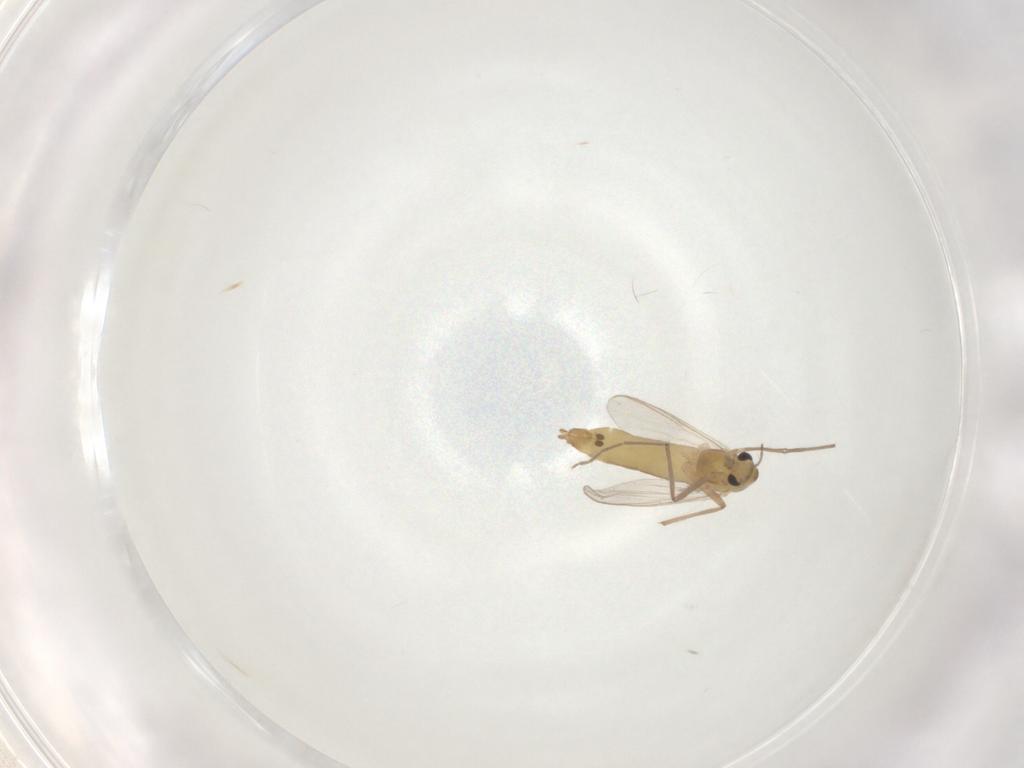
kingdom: Animalia
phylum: Arthropoda
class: Insecta
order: Diptera
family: Chironomidae
